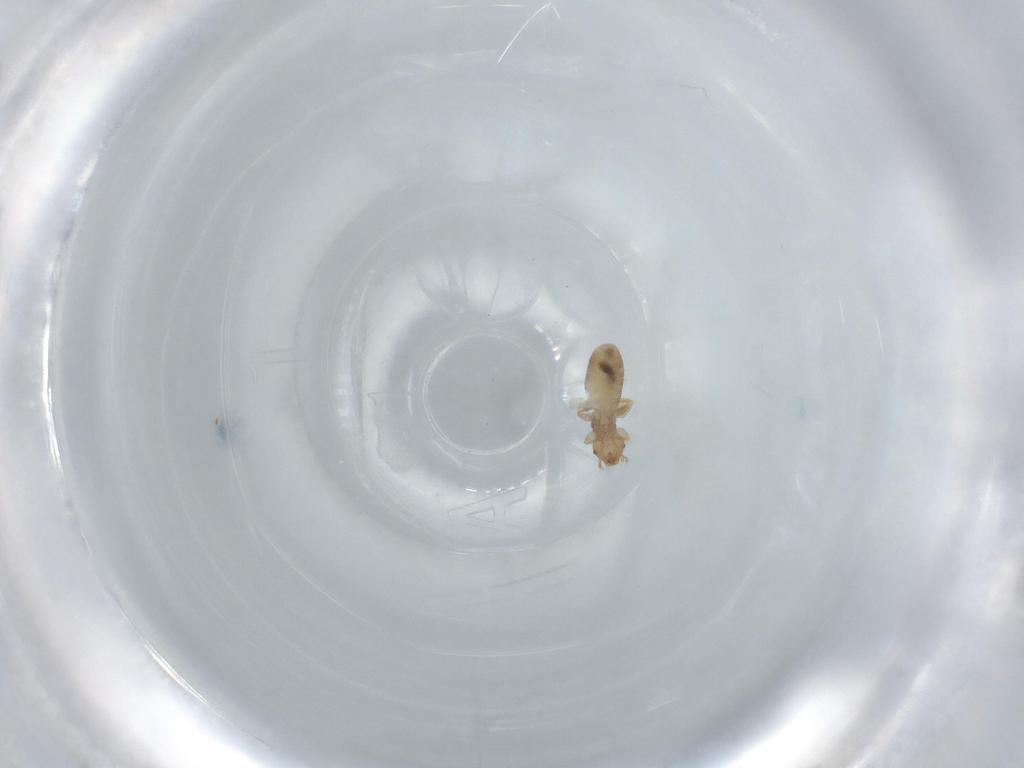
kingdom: Animalia
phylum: Arthropoda
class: Insecta
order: Psocodea
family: Liposcelididae
